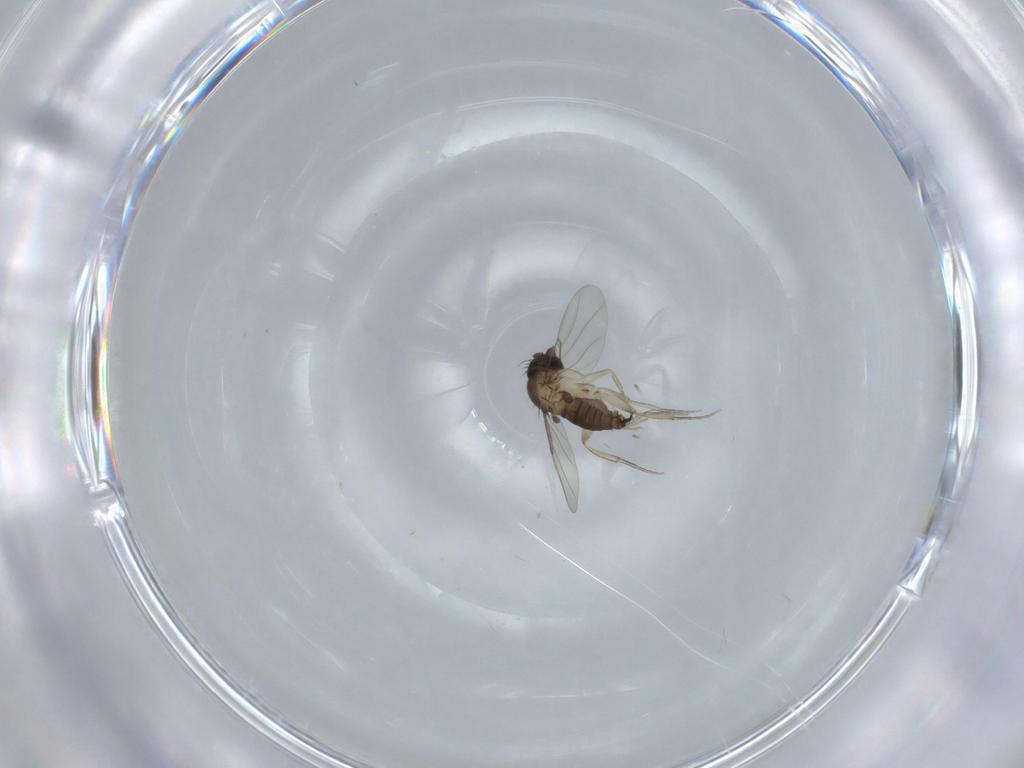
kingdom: Animalia
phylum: Arthropoda
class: Insecta
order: Diptera
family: Phoridae
